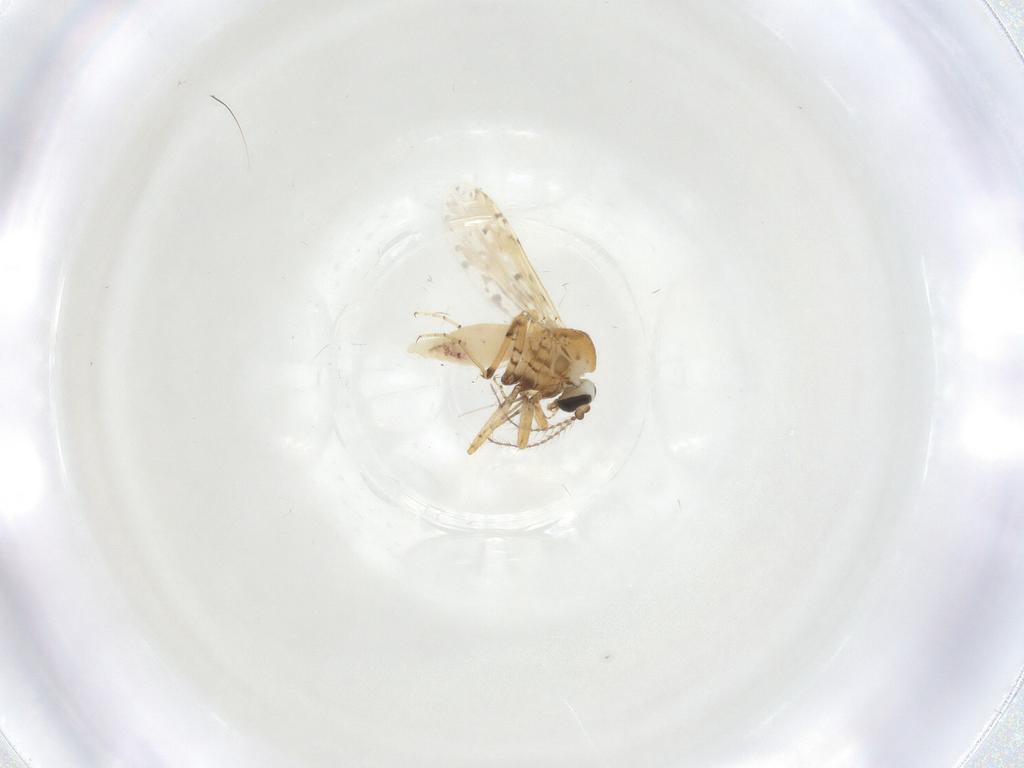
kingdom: Animalia
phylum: Arthropoda
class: Insecta
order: Diptera
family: Ceratopogonidae
